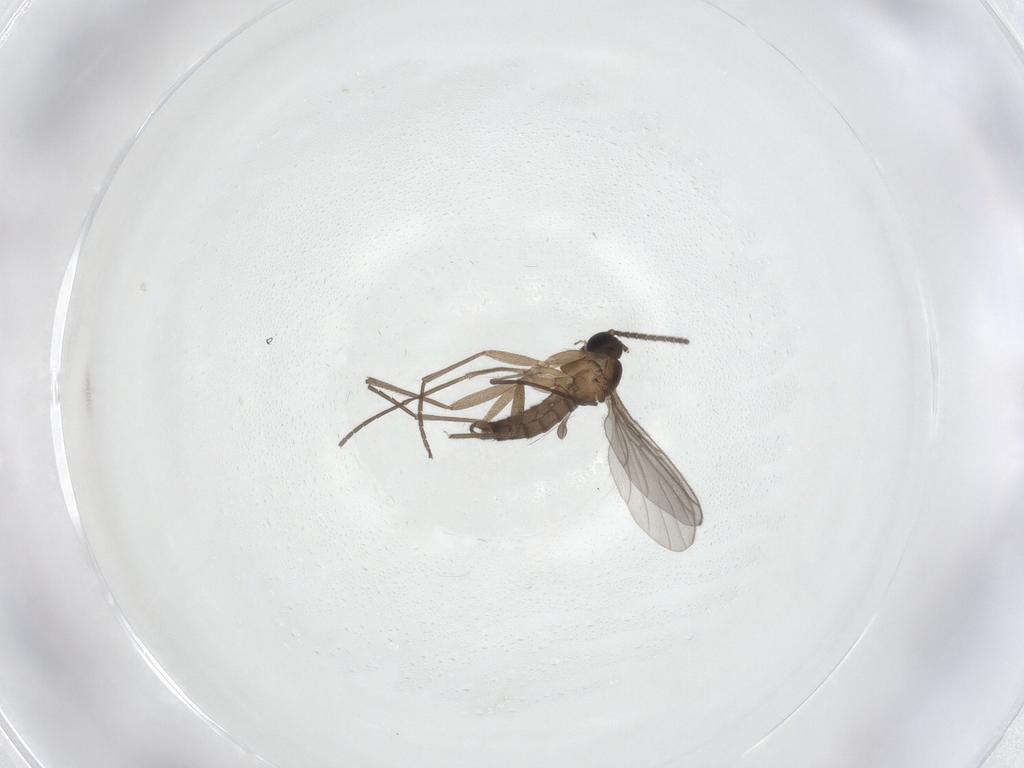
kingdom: Animalia
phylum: Arthropoda
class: Insecta
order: Diptera
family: Sciaridae
